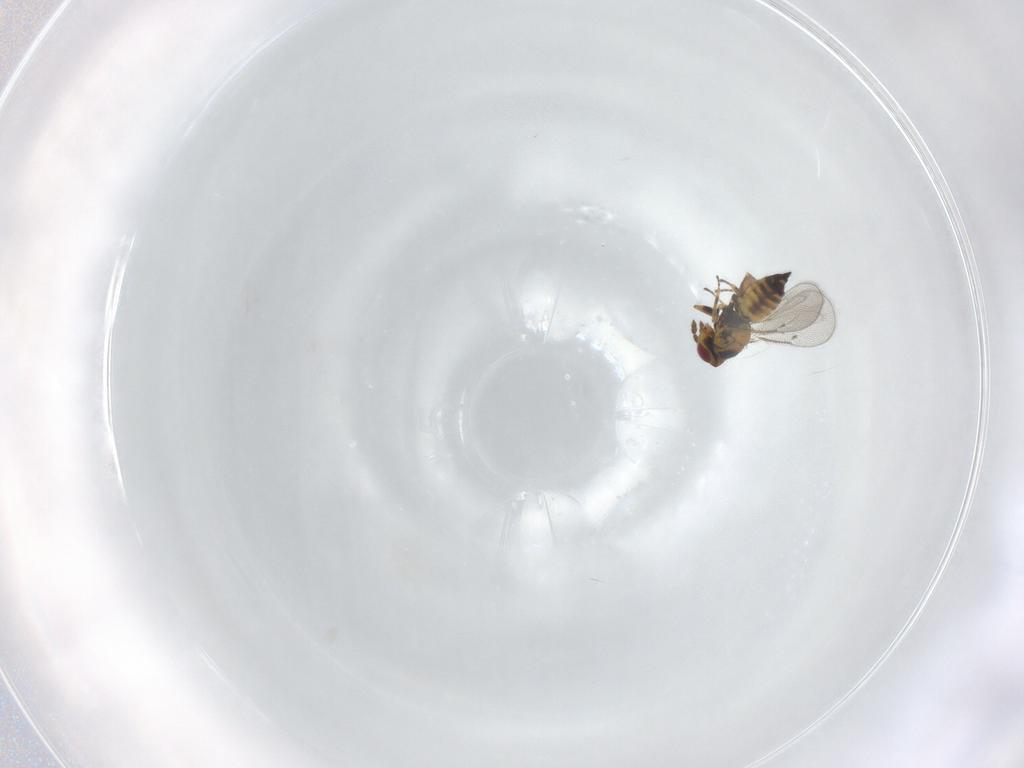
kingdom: Animalia
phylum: Arthropoda
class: Insecta
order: Hymenoptera
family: Eulophidae
